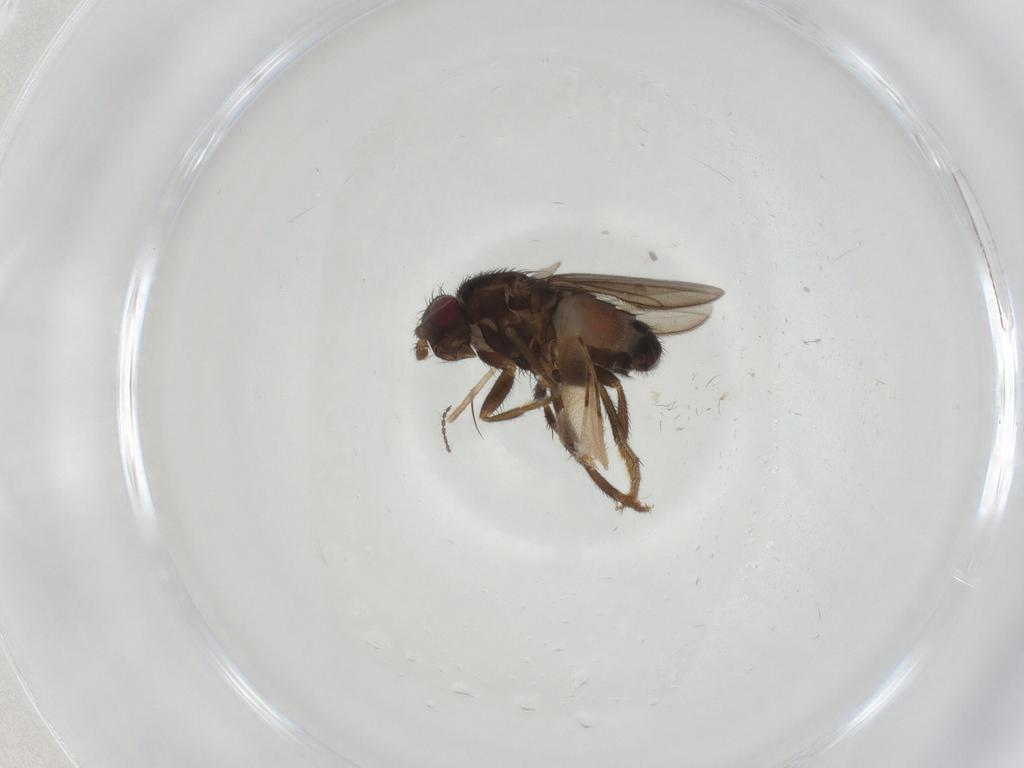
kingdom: Animalia
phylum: Arthropoda
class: Insecta
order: Diptera
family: Sphaeroceridae
